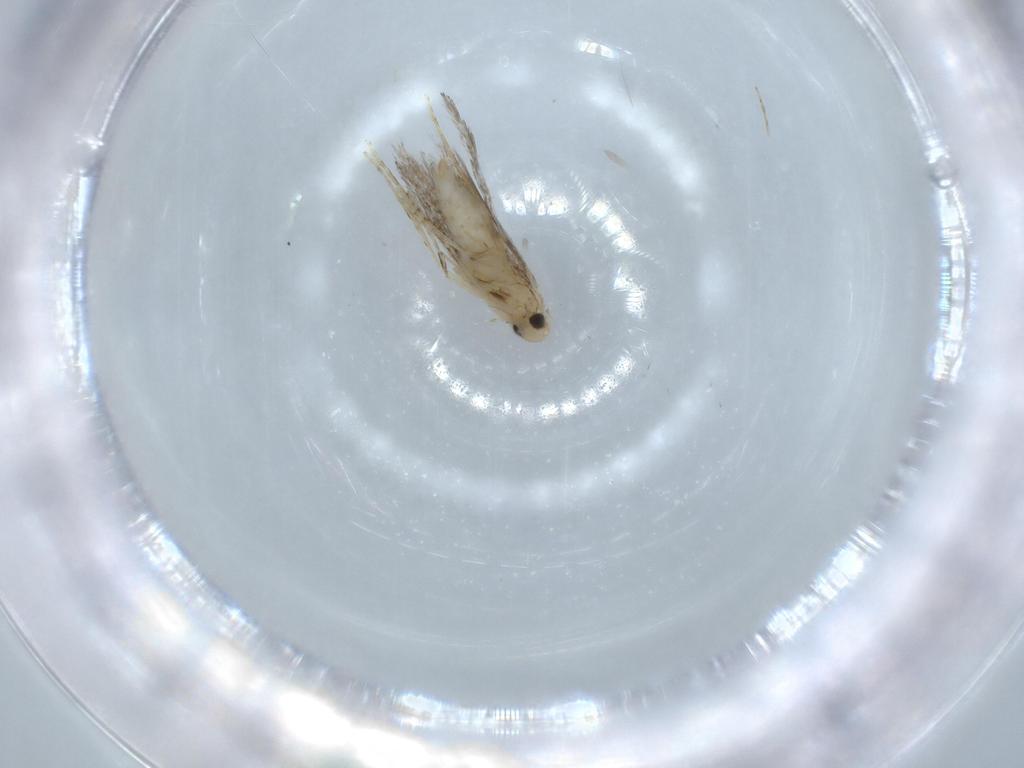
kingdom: Animalia
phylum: Arthropoda
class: Insecta
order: Lepidoptera
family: Gracillariidae
